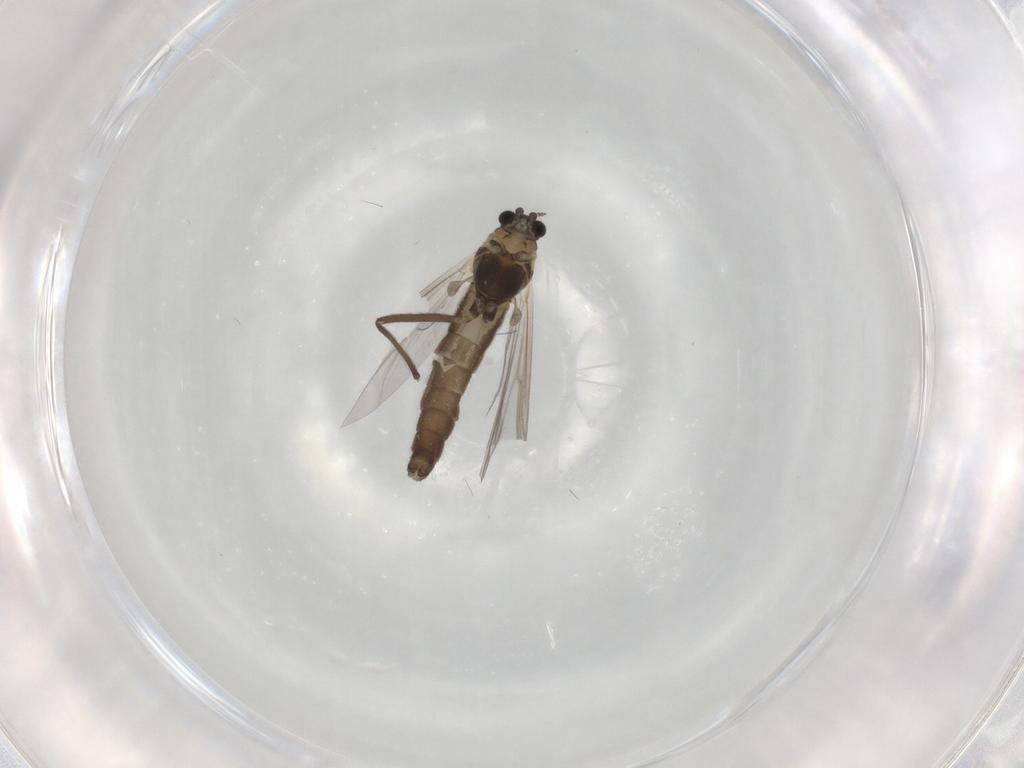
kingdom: Animalia
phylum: Arthropoda
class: Insecta
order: Diptera
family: Chironomidae
